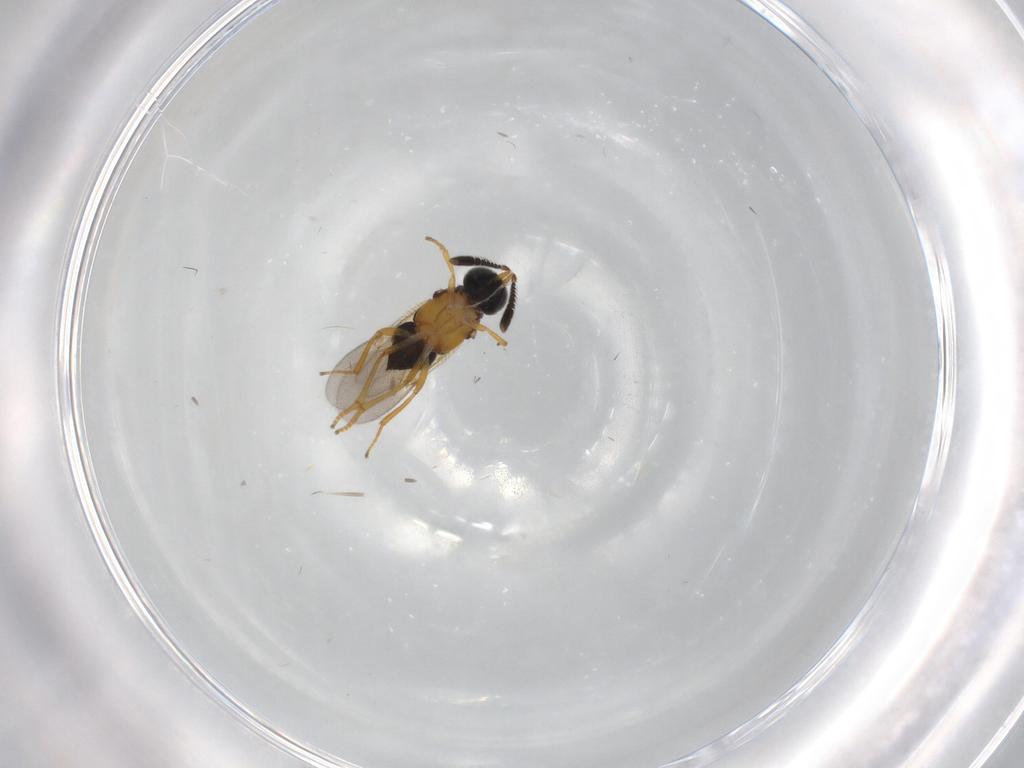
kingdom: Animalia
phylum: Arthropoda
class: Insecta
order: Hymenoptera
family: Encyrtidae
